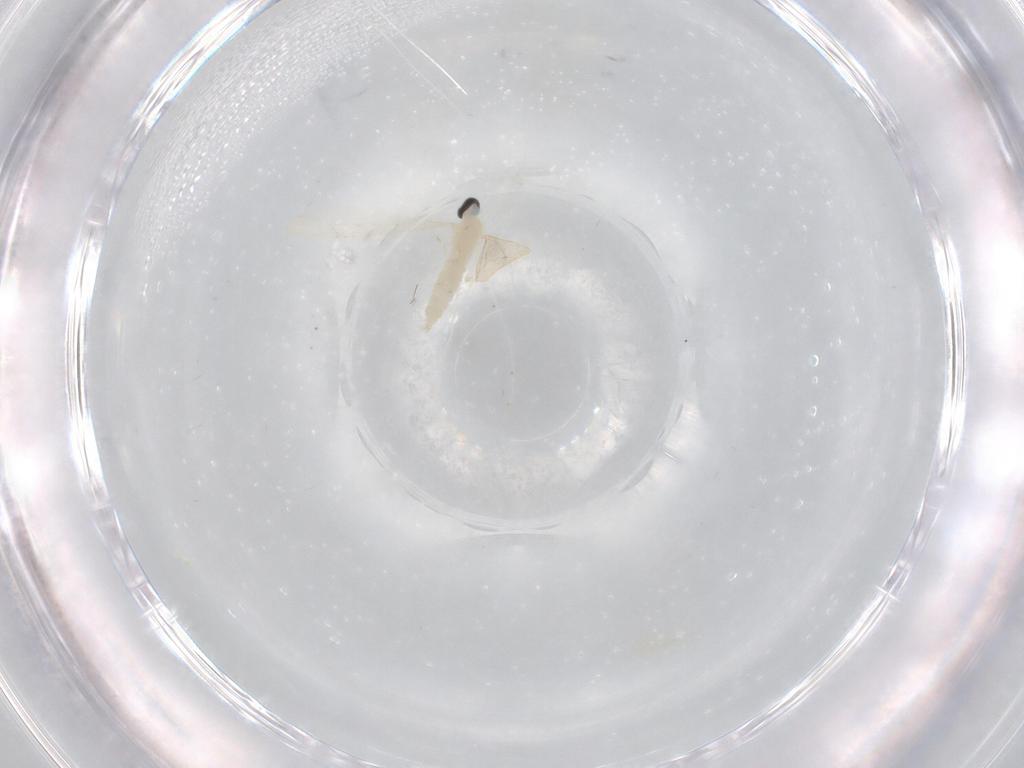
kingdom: Animalia
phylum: Arthropoda
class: Insecta
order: Diptera
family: Cecidomyiidae
